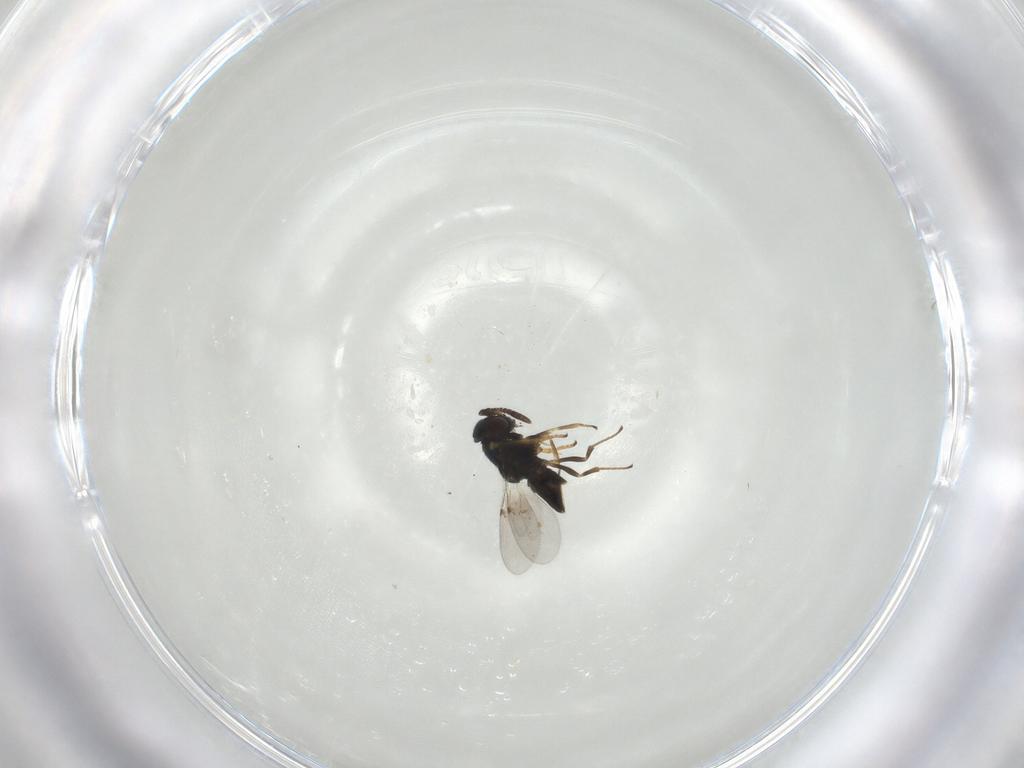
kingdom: Animalia
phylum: Arthropoda
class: Insecta
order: Hymenoptera
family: Encyrtidae
